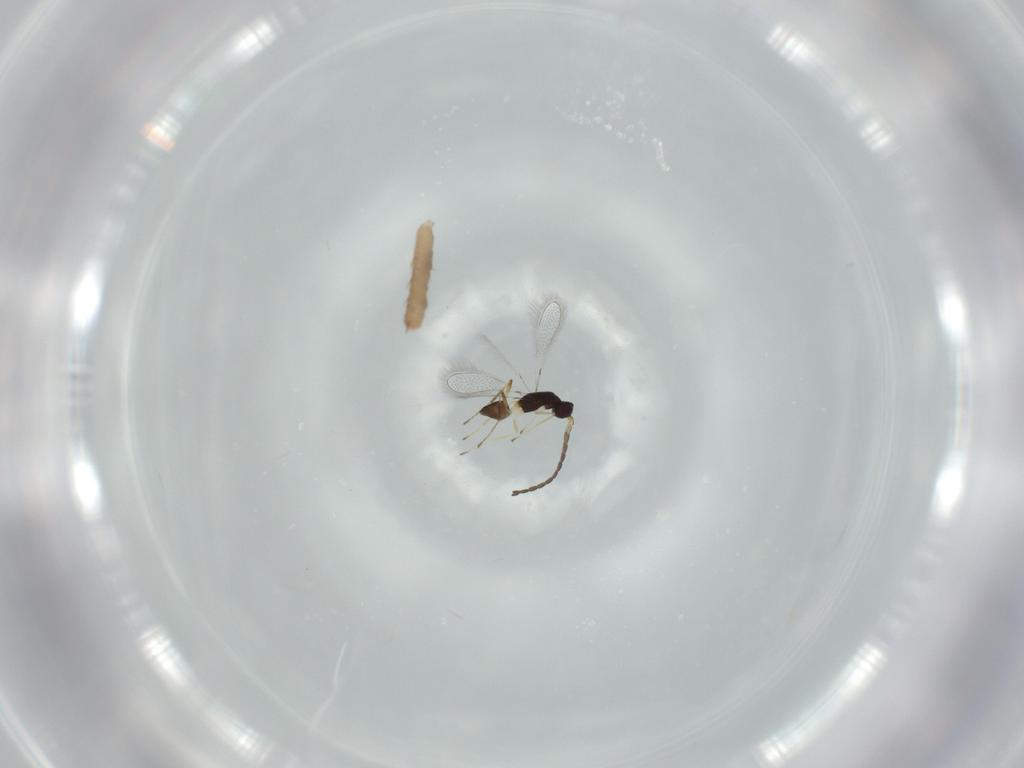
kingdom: Animalia
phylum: Arthropoda
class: Insecta
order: Hymenoptera
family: Mymaridae
